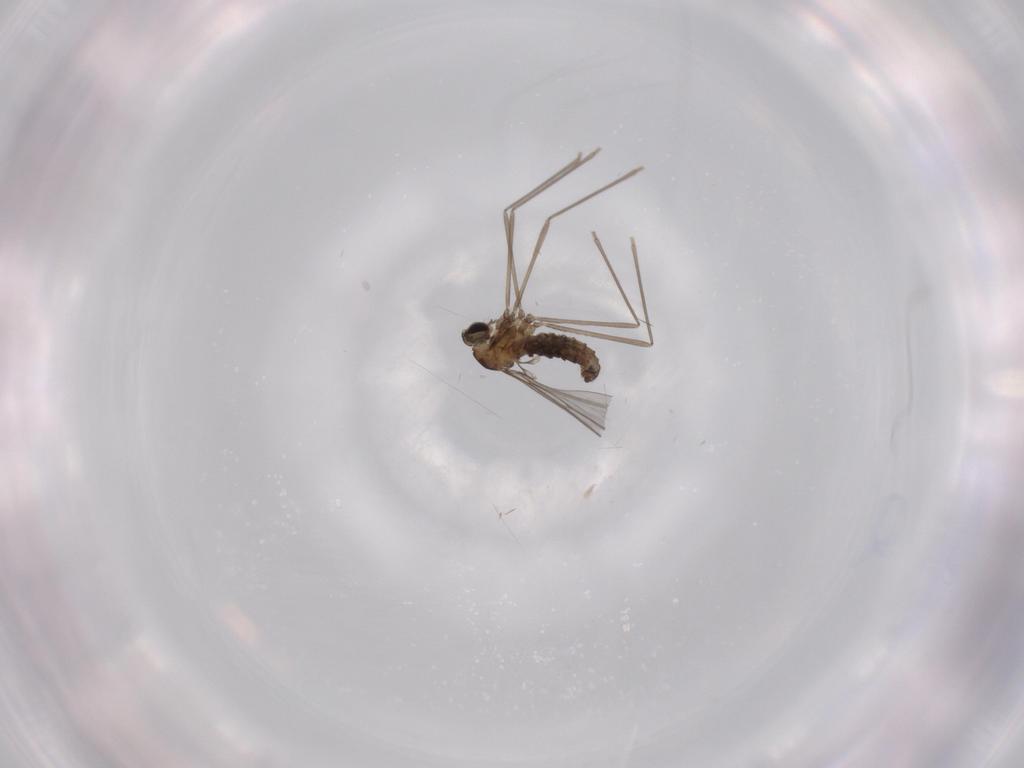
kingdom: Animalia
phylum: Arthropoda
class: Insecta
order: Diptera
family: Cecidomyiidae
